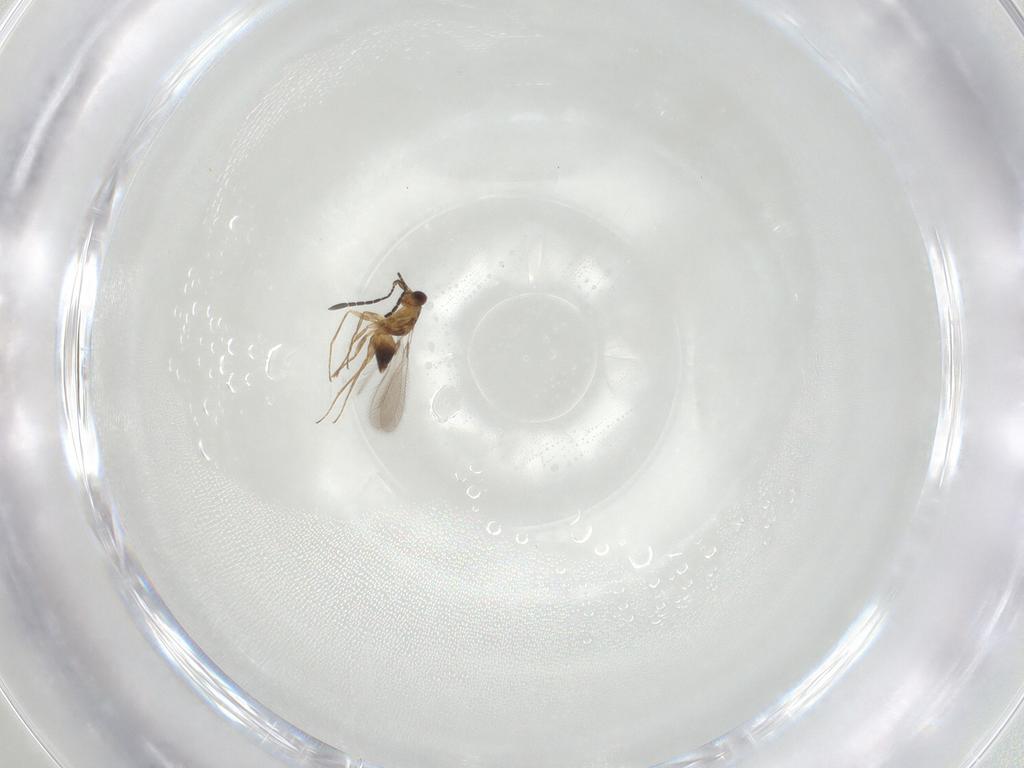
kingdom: Animalia
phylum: Arthropoda
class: Insecta
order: Hymenoptera
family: Mymaridae
